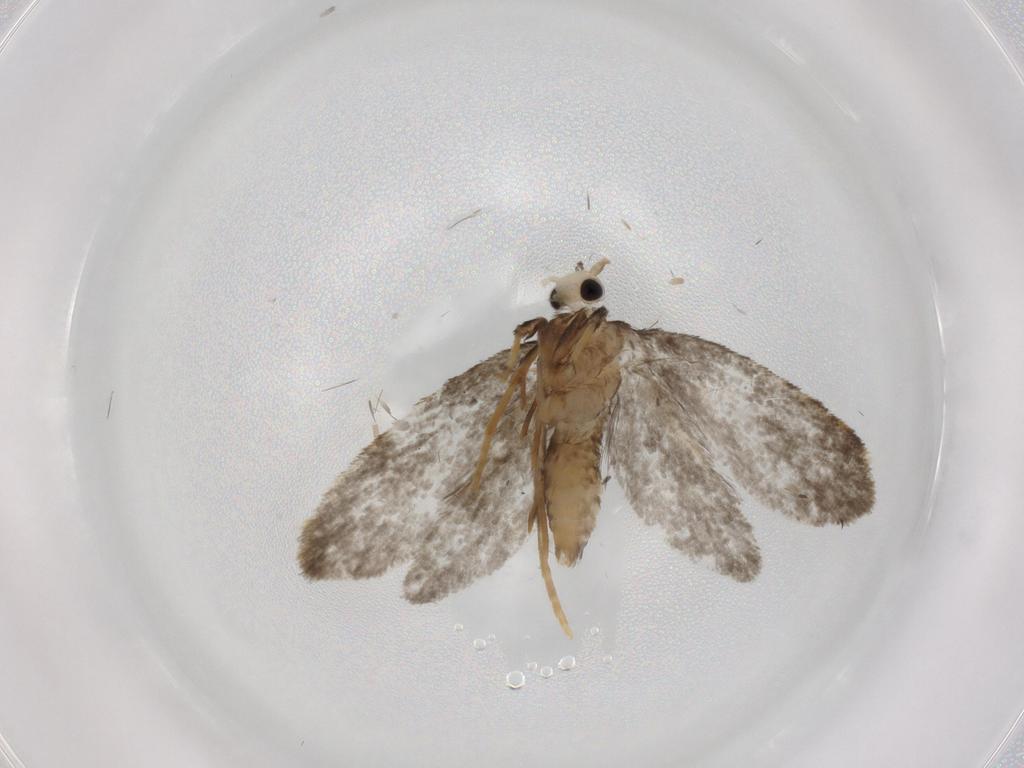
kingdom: Animalia
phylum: Arthropoda
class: Insecta
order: Lepidoptera
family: Psychidae
